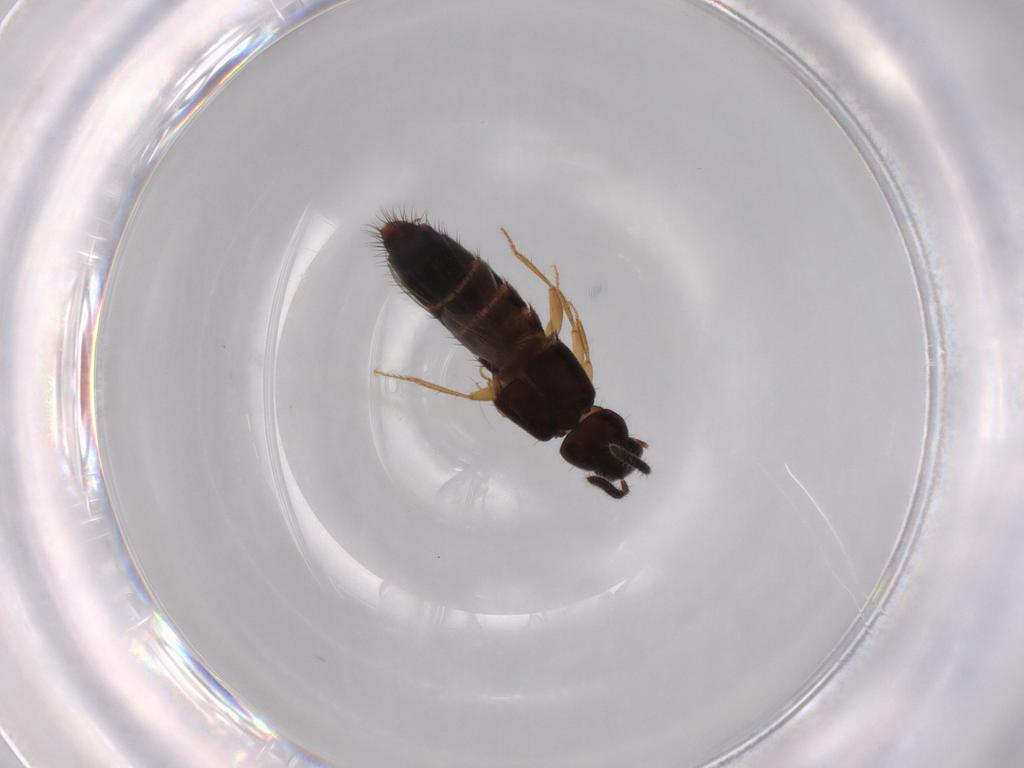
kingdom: Animalia
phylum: Arthropoda
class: Insecta
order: Coleoptera
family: Staphylinidae
